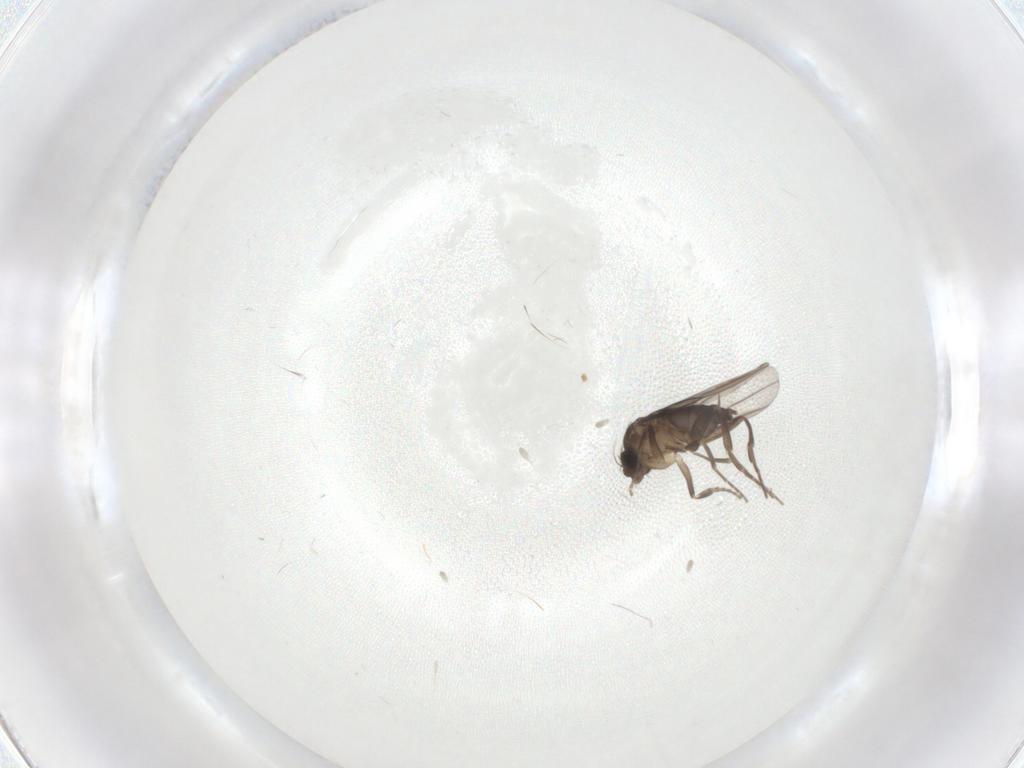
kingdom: Animalia
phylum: Arthropoda
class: Insecta
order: Diptera
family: Phoridae
